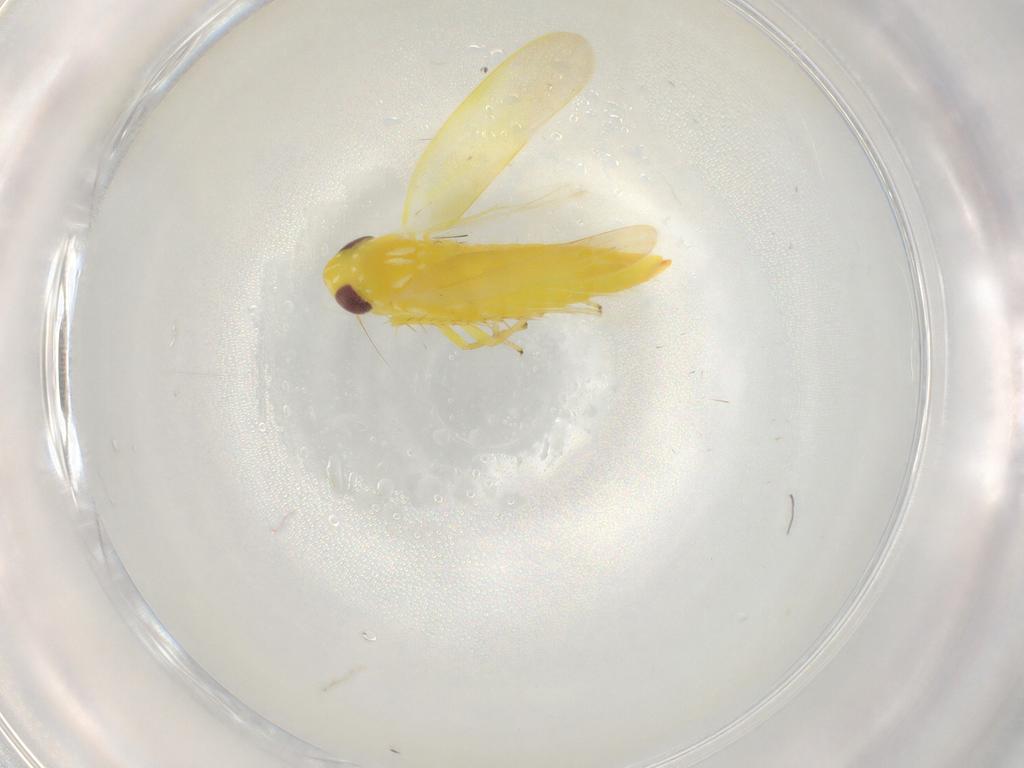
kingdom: Animalia
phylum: Arthropoda
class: Insecta
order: Hemiptera
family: Cicadellidae
